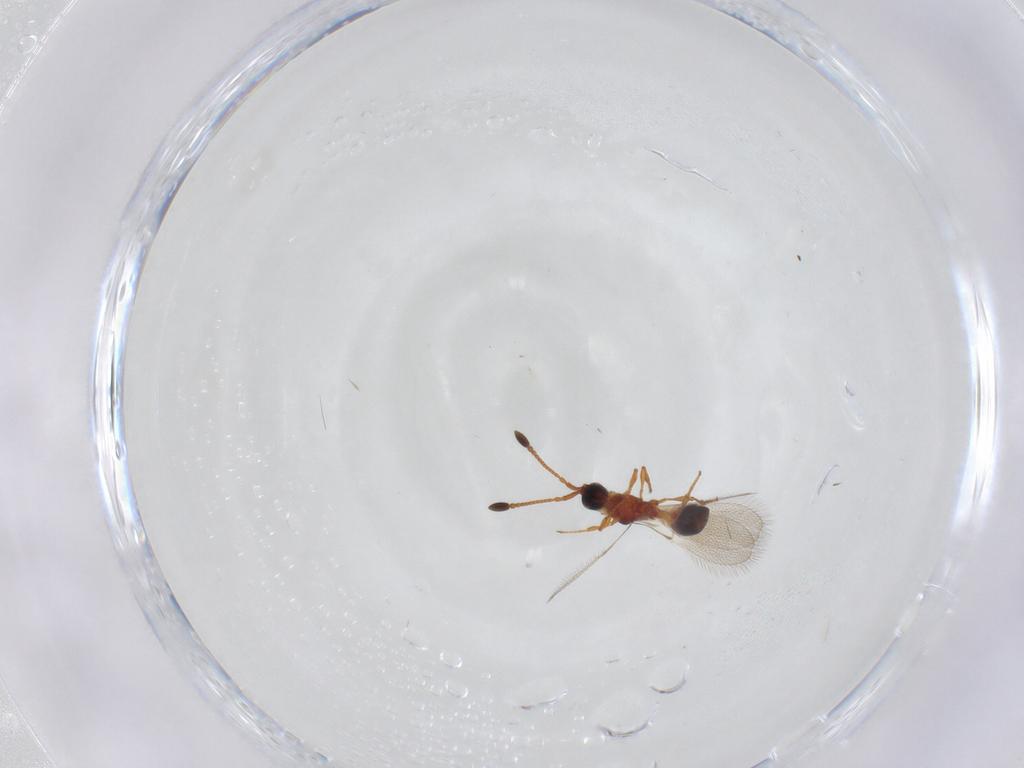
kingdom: Animalia
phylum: Arthropoda
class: Insecta
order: Hymenoptera
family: Diapriidae
